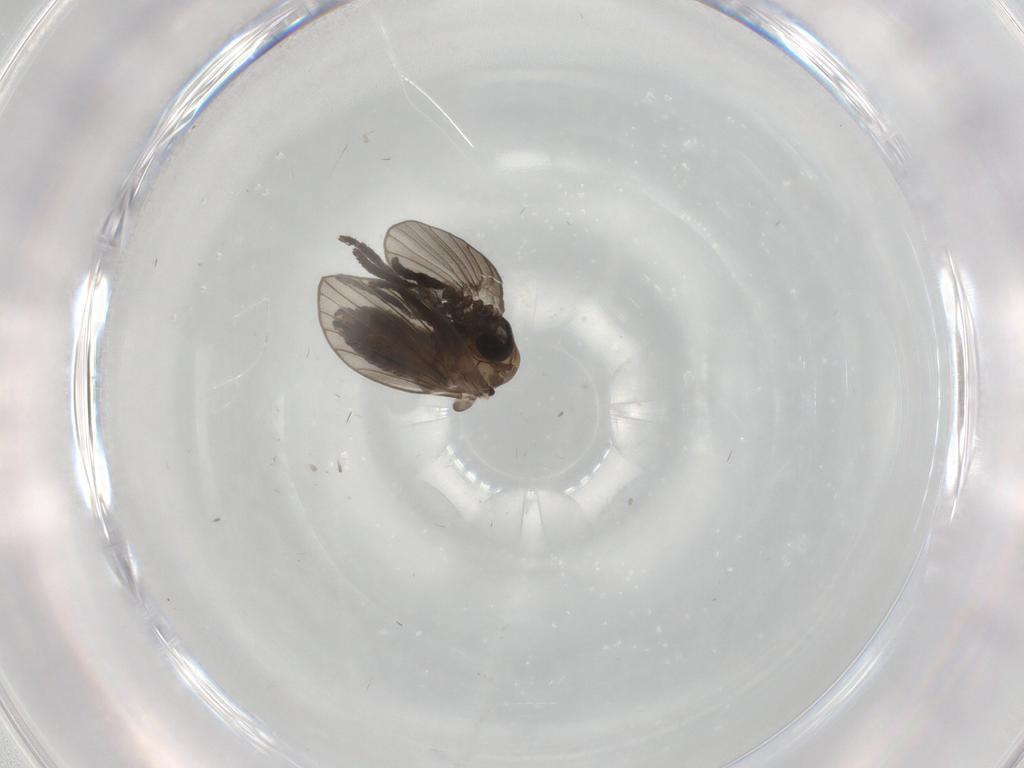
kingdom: Animalia
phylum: Arthropoda
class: Insecta
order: Diptera
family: Psychodidae
